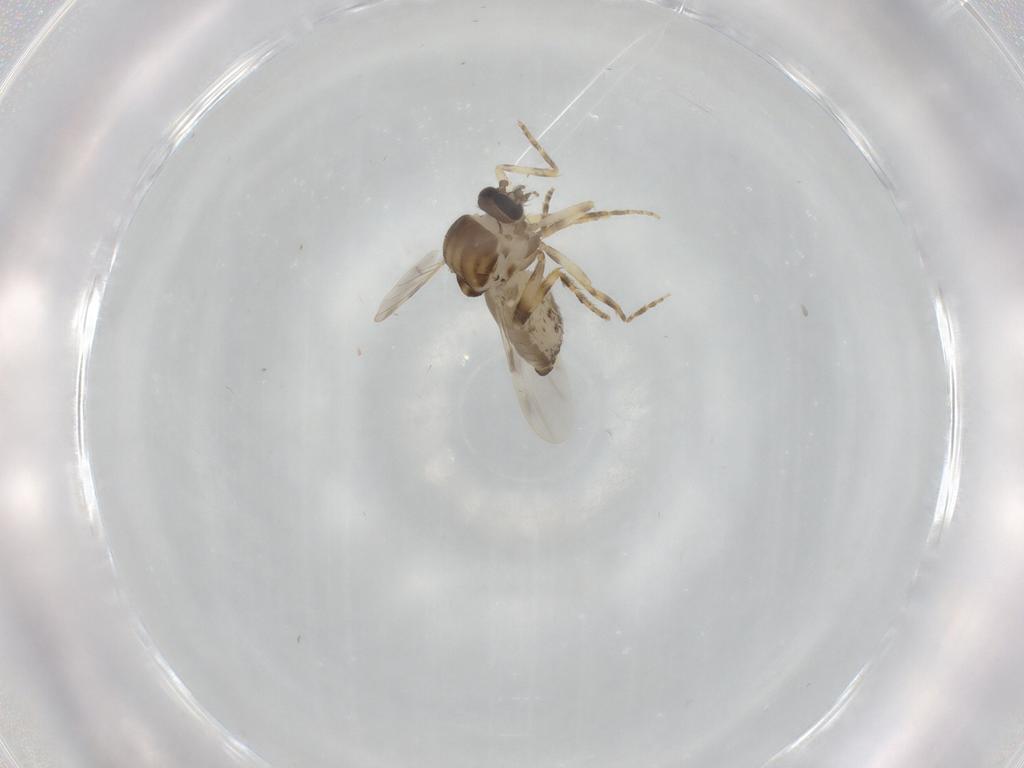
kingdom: Animalia
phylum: Arthropoda
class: Insecta
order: Diptera
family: Ceratopogonidae
